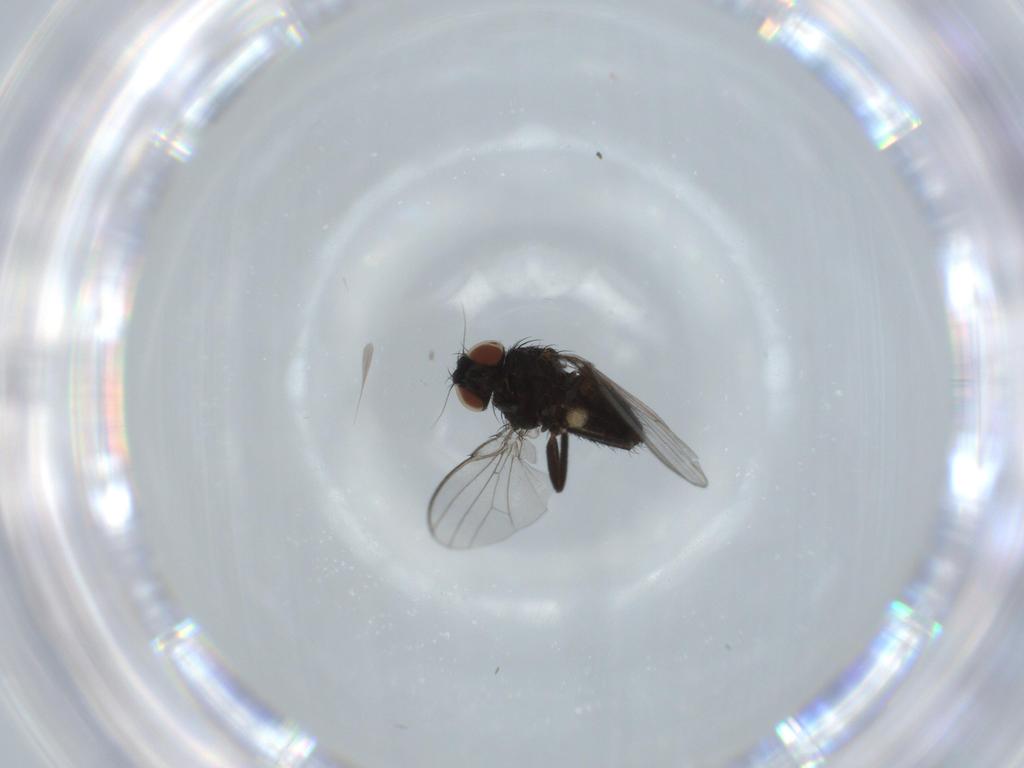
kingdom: Animalia
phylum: Arthropoda
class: Insecta
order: Diptera
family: Milichiidae
